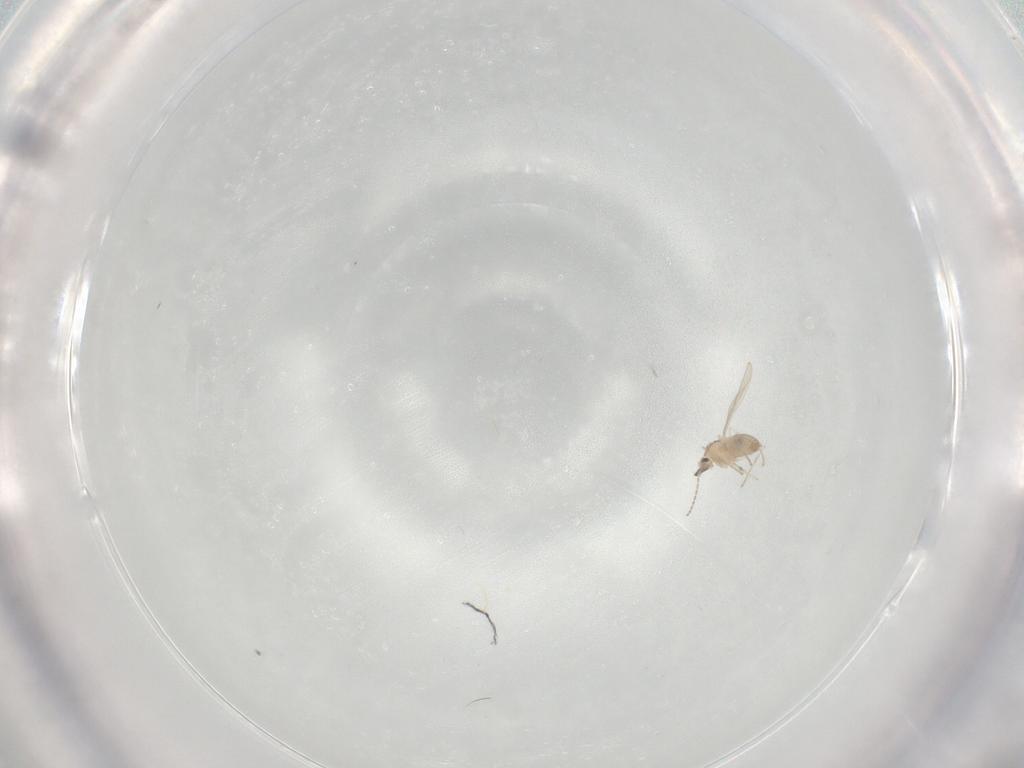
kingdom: Animalia
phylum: Arthropoda
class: Insecta
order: Diptera
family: Cecidomyiidae
